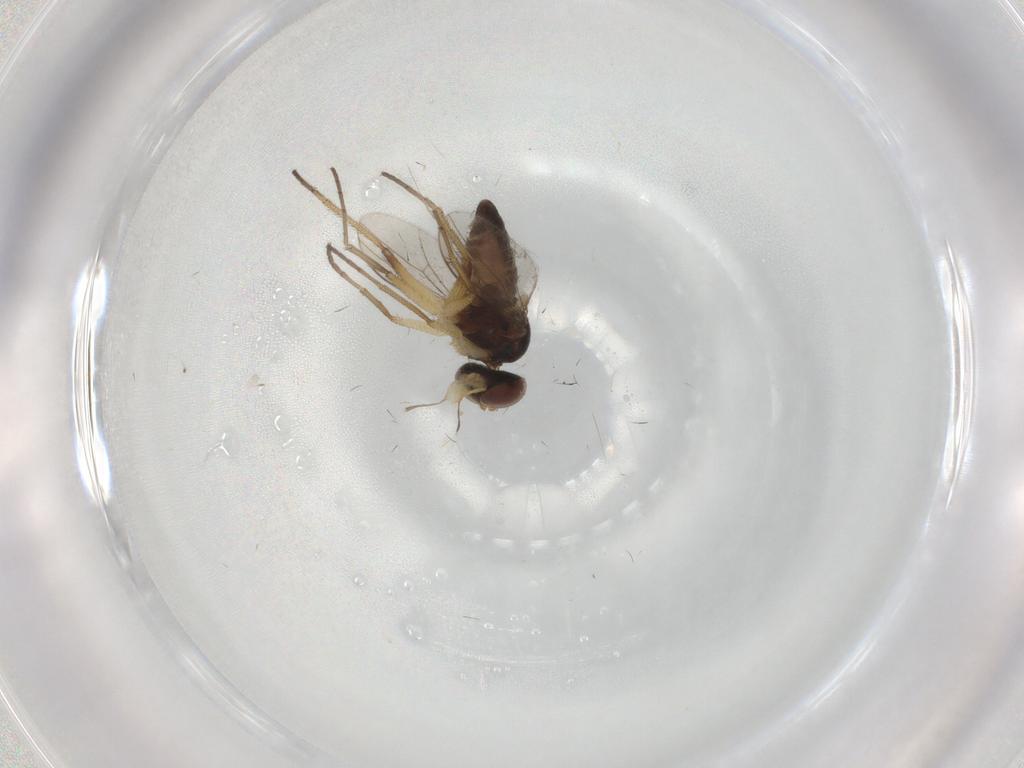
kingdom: Animalia
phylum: Arthropoda
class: Insecta
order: Diptera
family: Dolichopodidae
